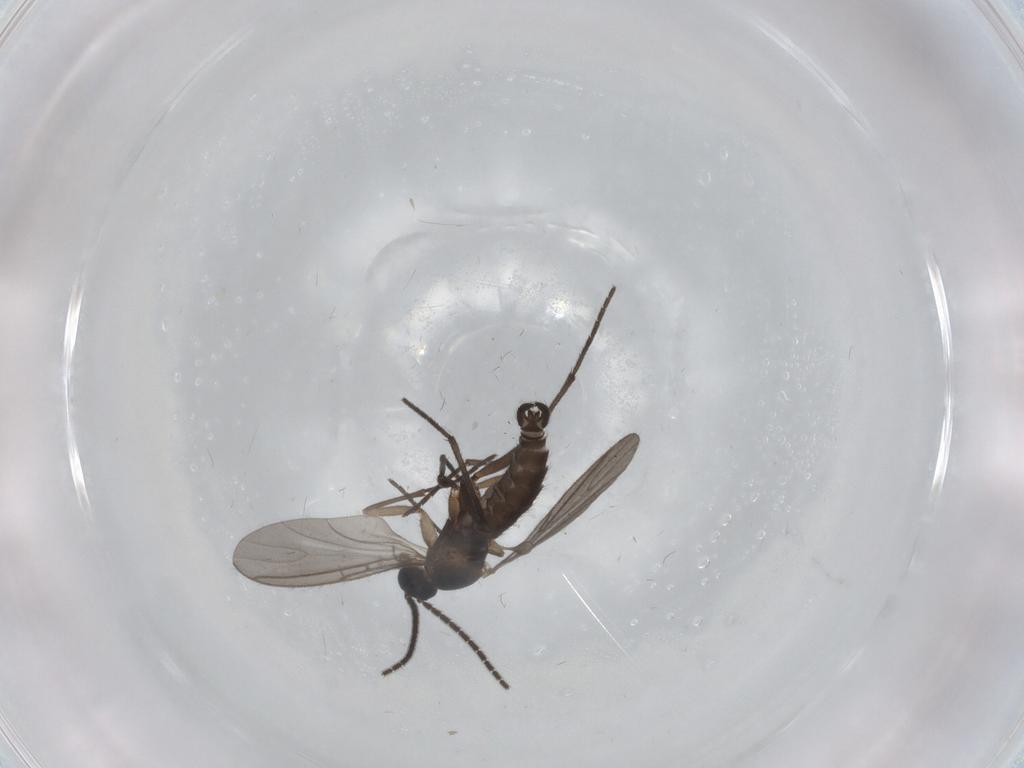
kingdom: Animalia
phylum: Arthropoda
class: Insecta
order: Diptera
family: Sciaridae
